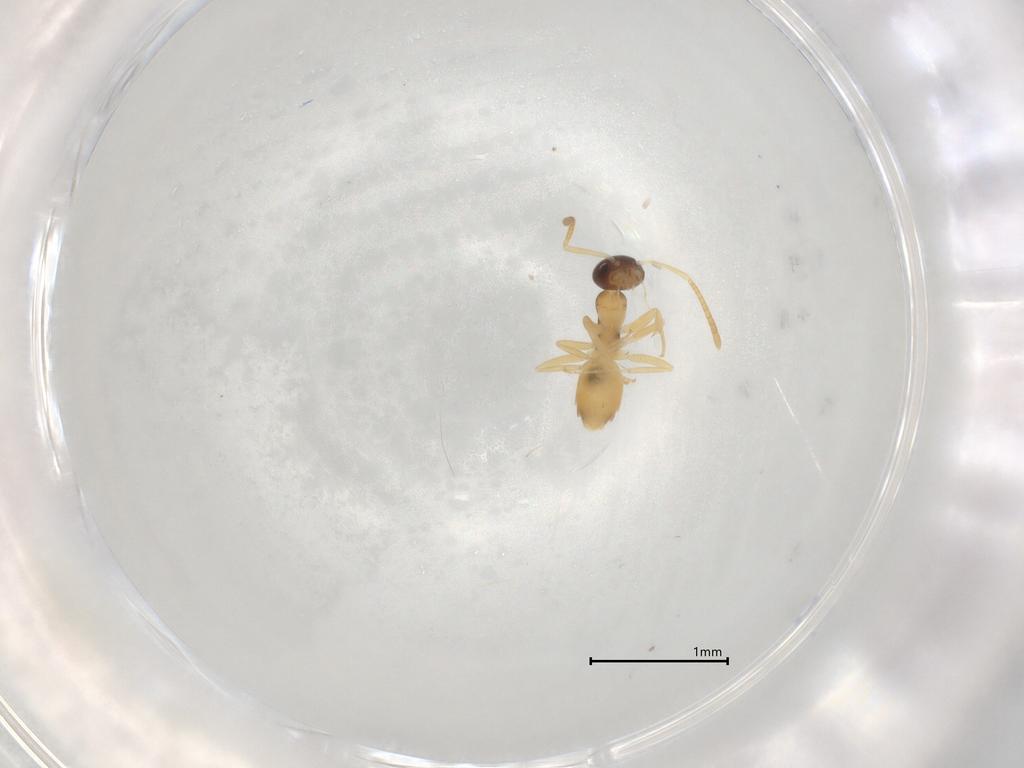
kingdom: Animalia
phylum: Arthropoda
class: Insecta
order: Hymenoptera
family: Formicidae
